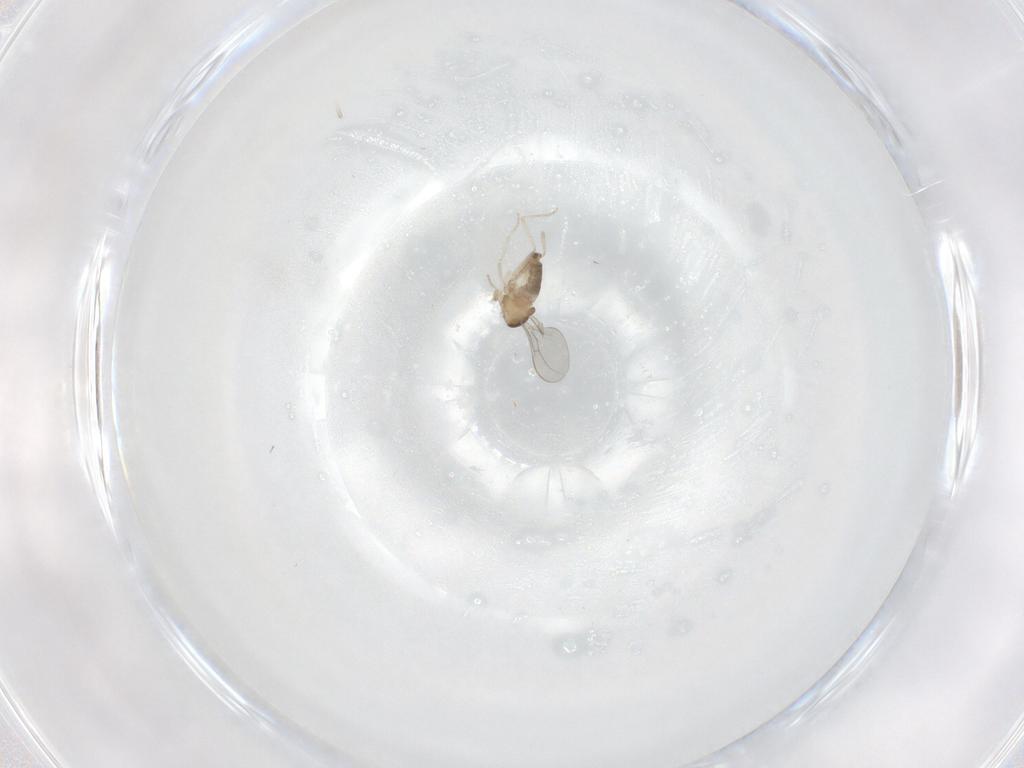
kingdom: Animalia
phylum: Arthropoda
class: Insecta
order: Diptera
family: Cecidomyiidae
